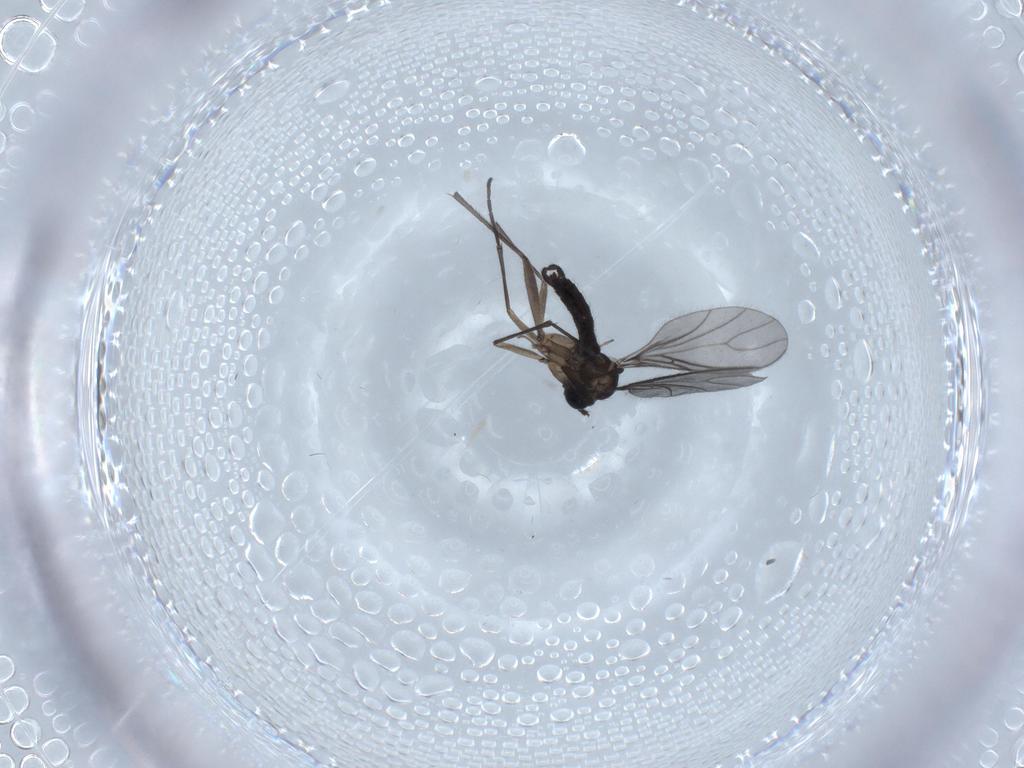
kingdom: Animalia
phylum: Arthropoda
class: Insecta
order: Diptera
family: Sciaridae
